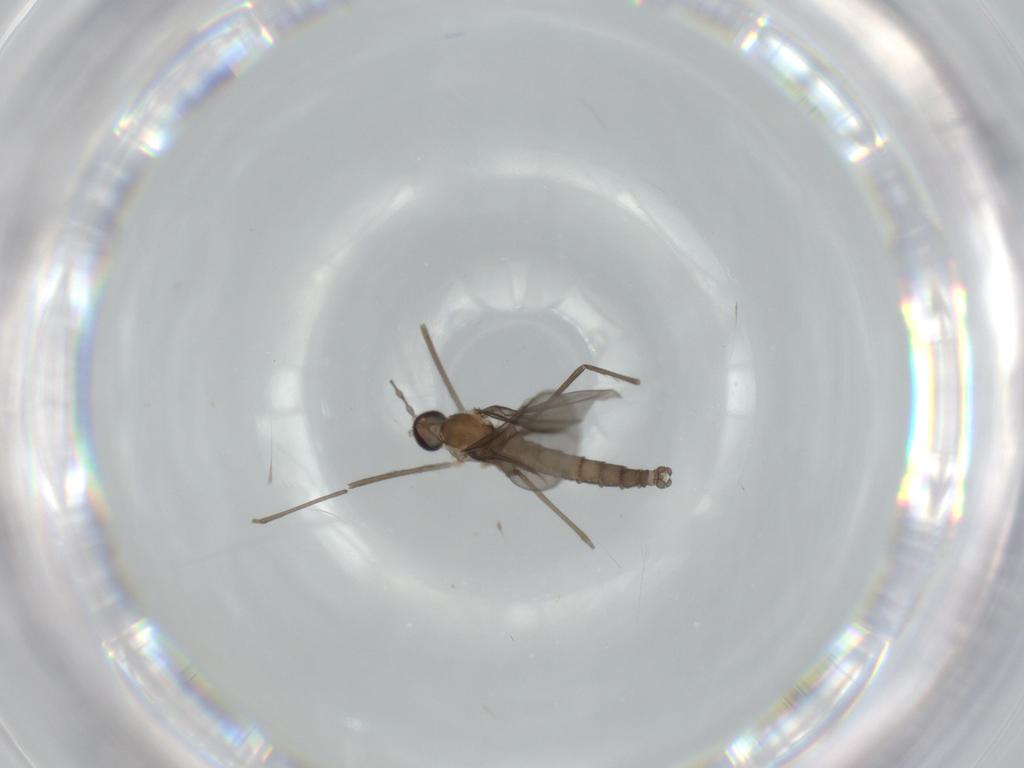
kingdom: Animalia
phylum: Arthropoda
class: Insecta
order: Diptera
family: Cecidomyiidae
